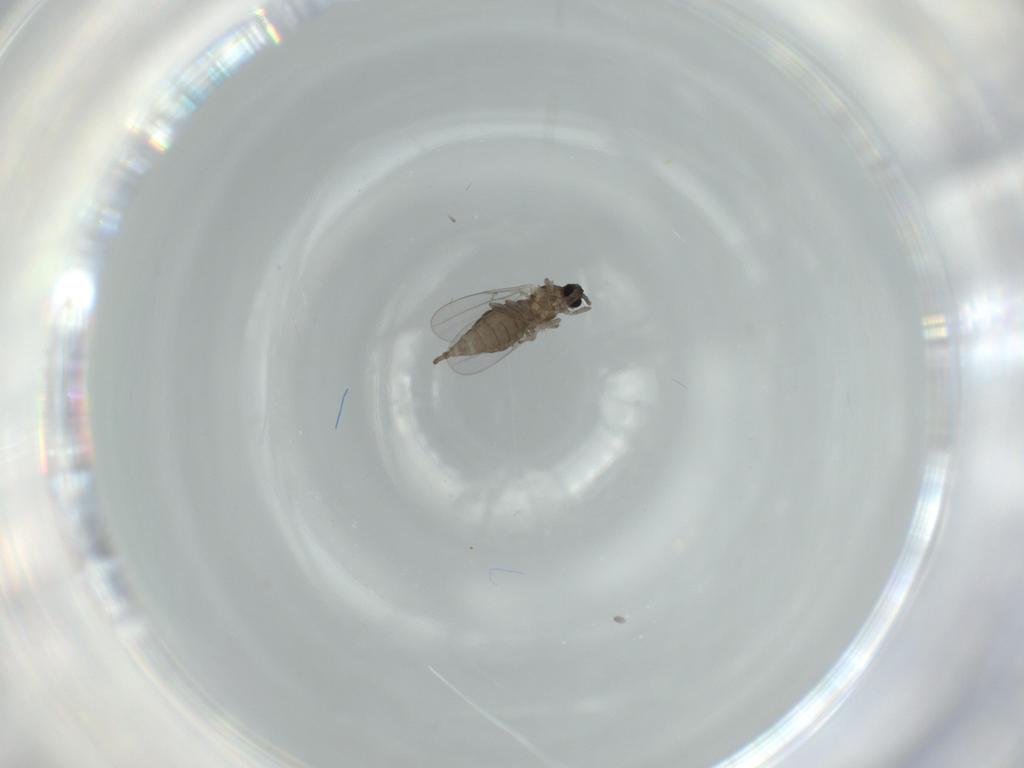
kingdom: Animalia
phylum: Arthropoda
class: Insecta
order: Diptera
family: Cecidomyiidae
